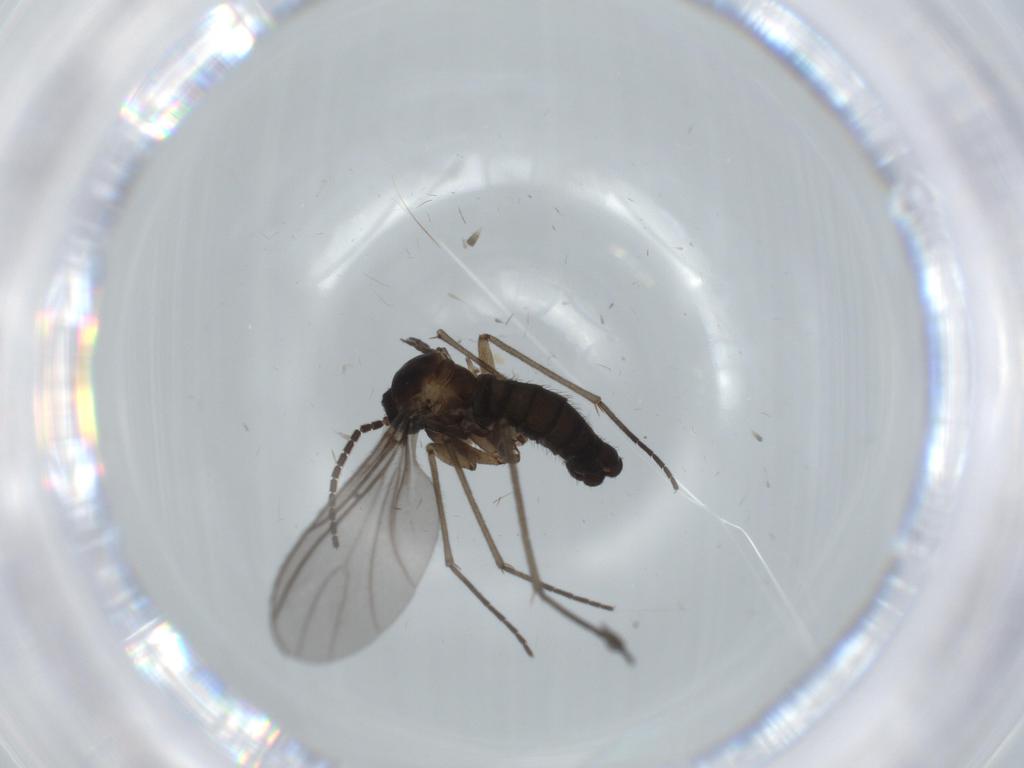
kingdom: Animalia
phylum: Arthropoda
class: Insecta
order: Diptera
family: Sciaridae
